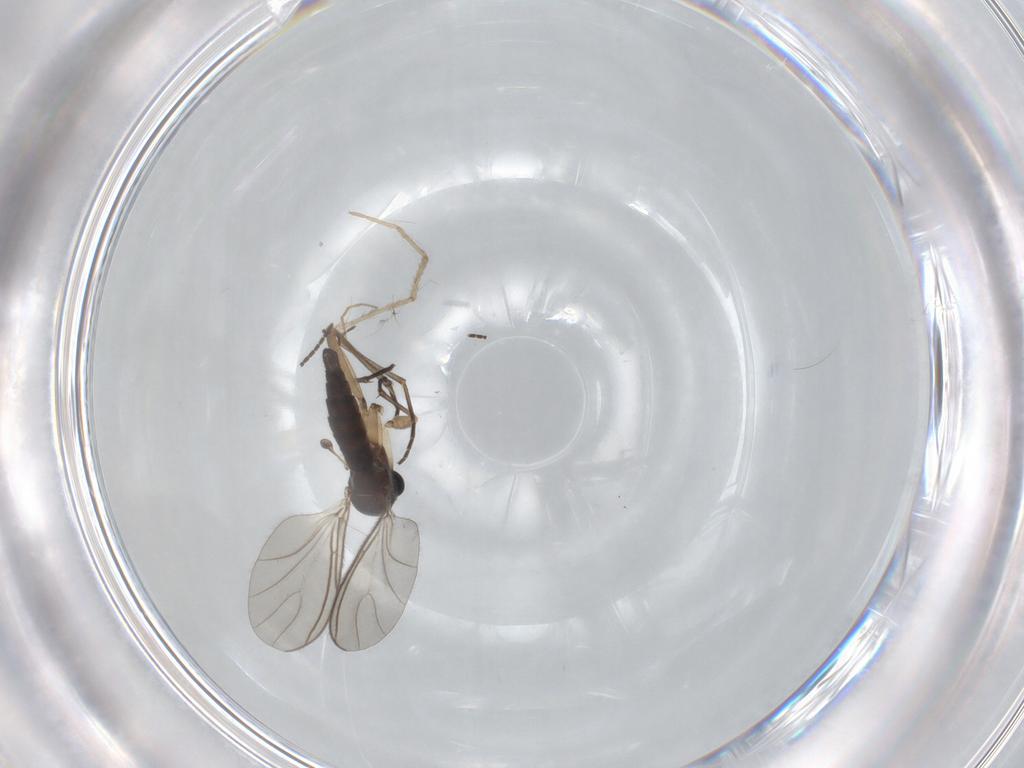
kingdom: Animalia
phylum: Arthropoda
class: Insecta
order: Diptera
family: Sciaridae
